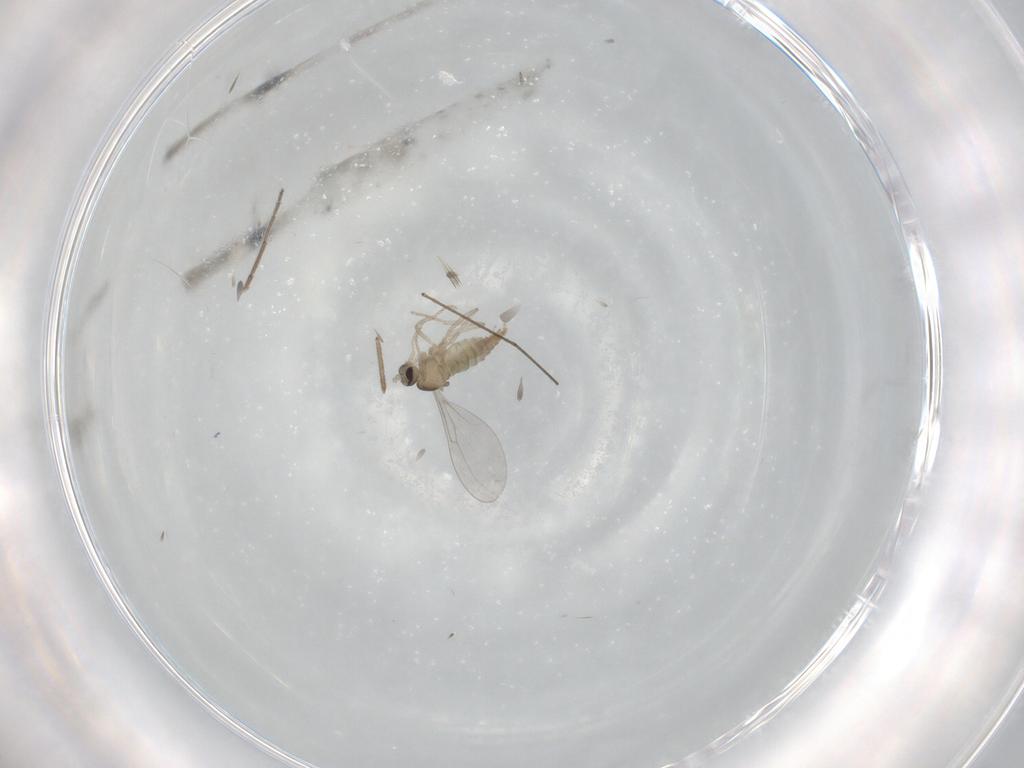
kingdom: Animalia
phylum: Arthropoda
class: Insecta
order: Diptera
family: Cecidomyiidae
